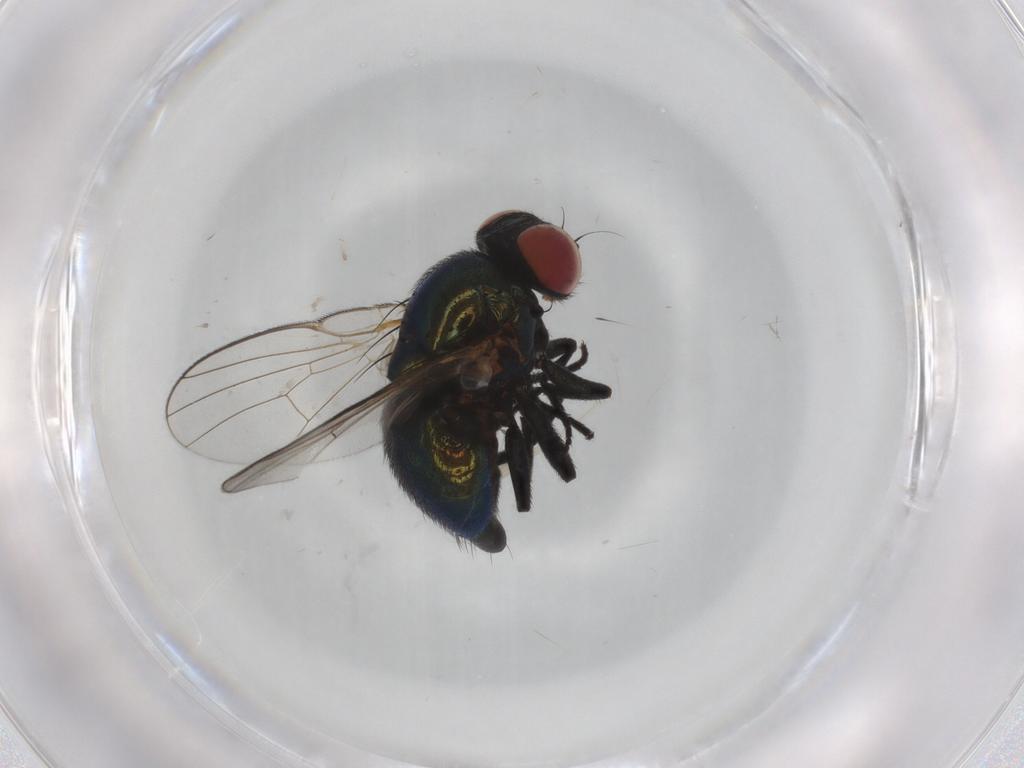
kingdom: Animalia
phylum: Arthropoda
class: Insecta
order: Diptera
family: Agromyzidae
